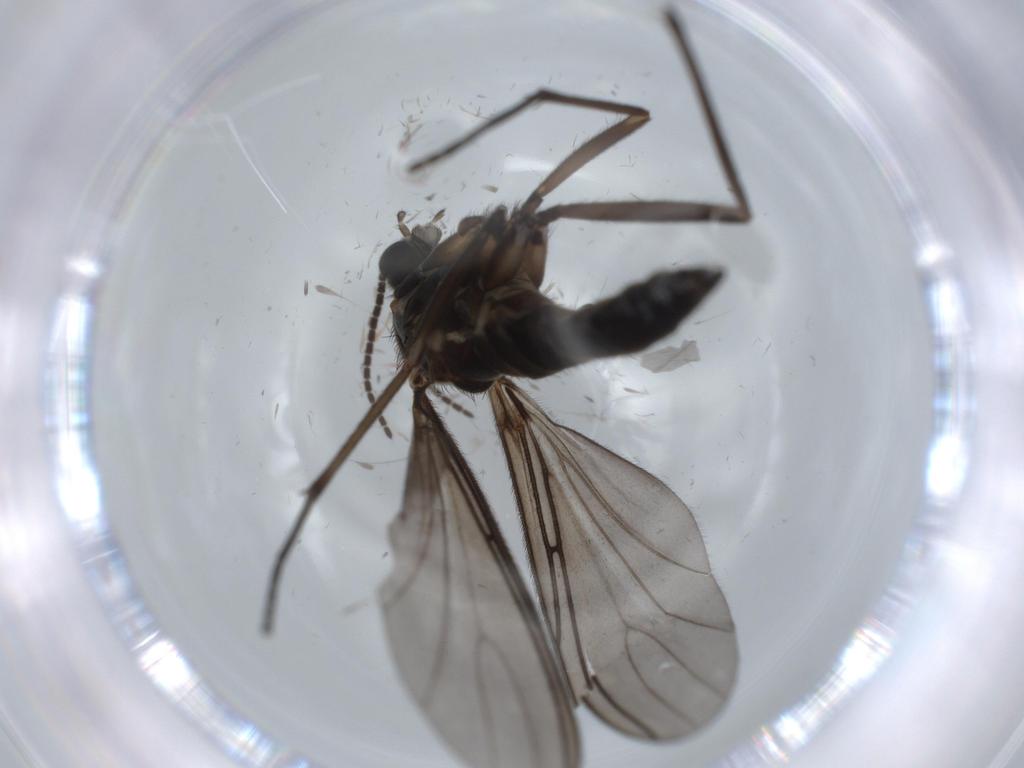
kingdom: Animalia
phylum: Arthropoda
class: Insecta
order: Diptera
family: Sciaridae
